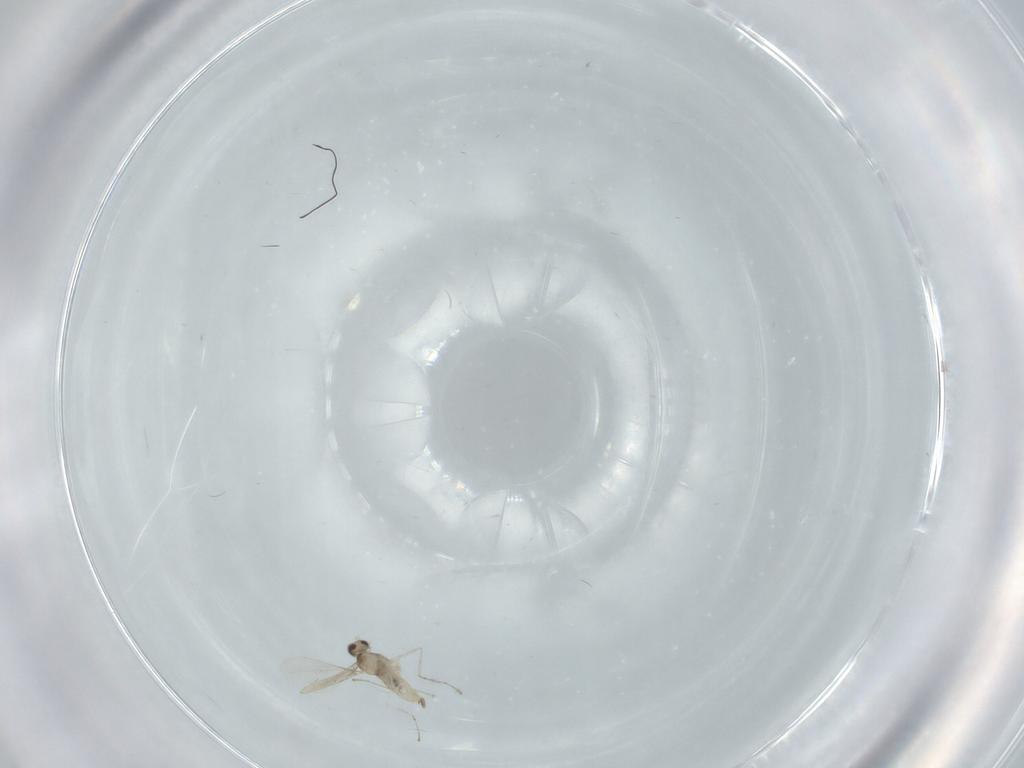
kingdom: Animalia
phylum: Arthropoda
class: Insecta
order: Diptera
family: Cecidomyiidae
